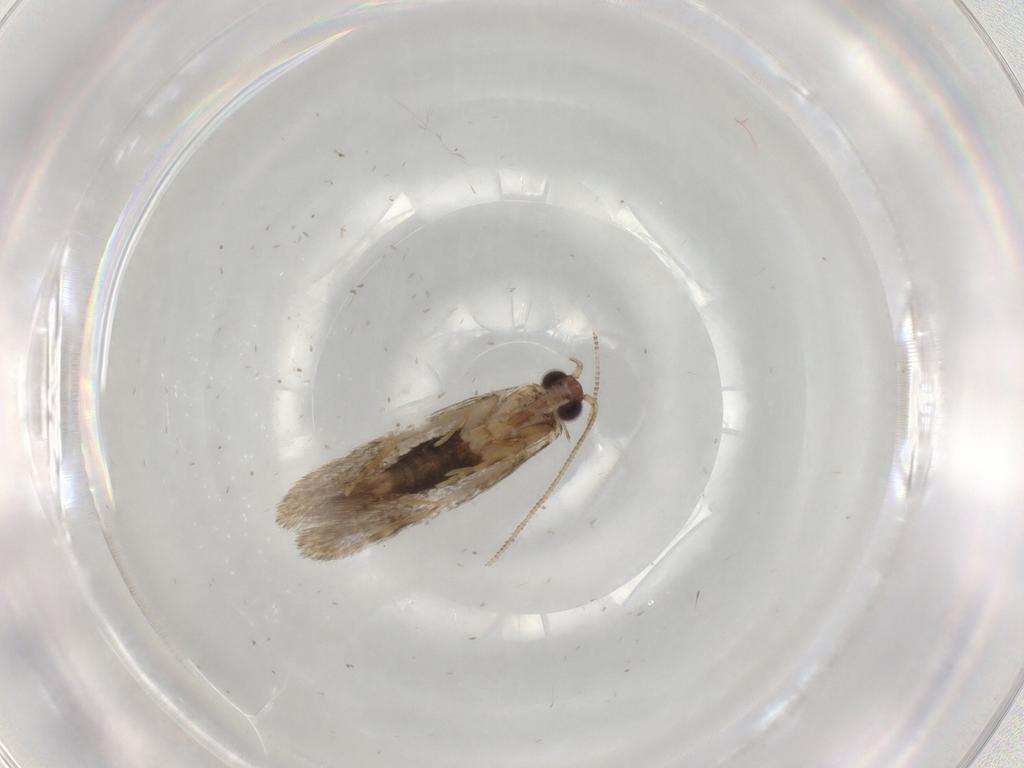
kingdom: Animalia
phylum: Arthropoda
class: Insecta
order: Lepidoptera
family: Tineidae
